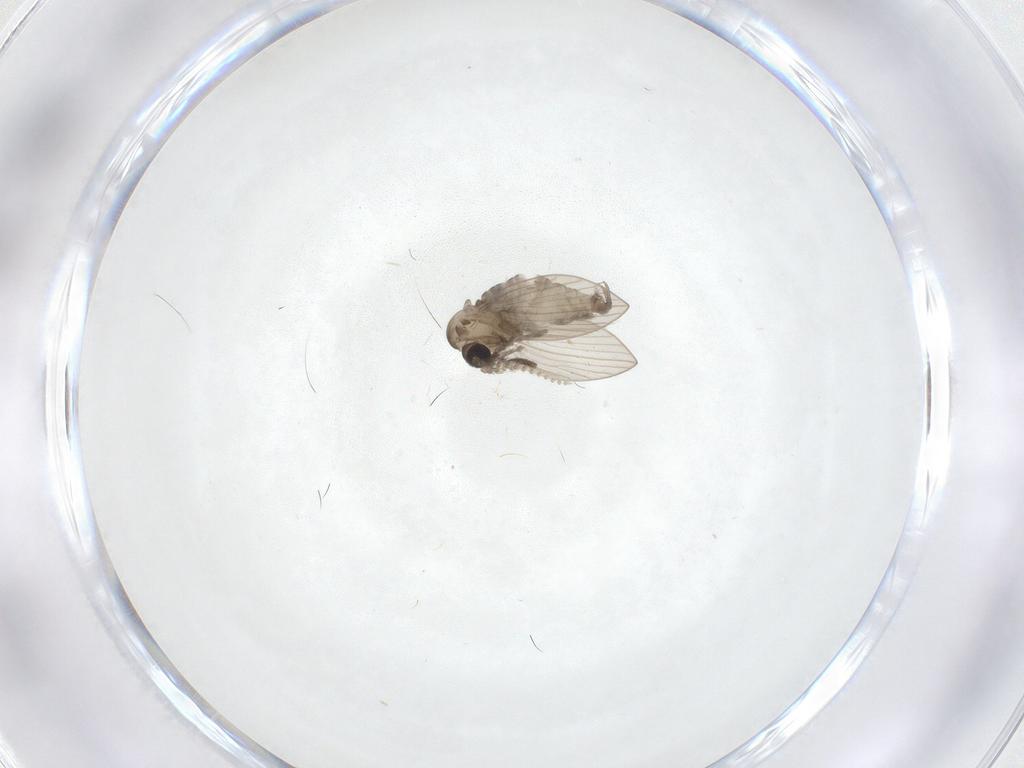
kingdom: Animalia
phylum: Arthropoda
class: Insecta
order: Diptera
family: Psychodidae
